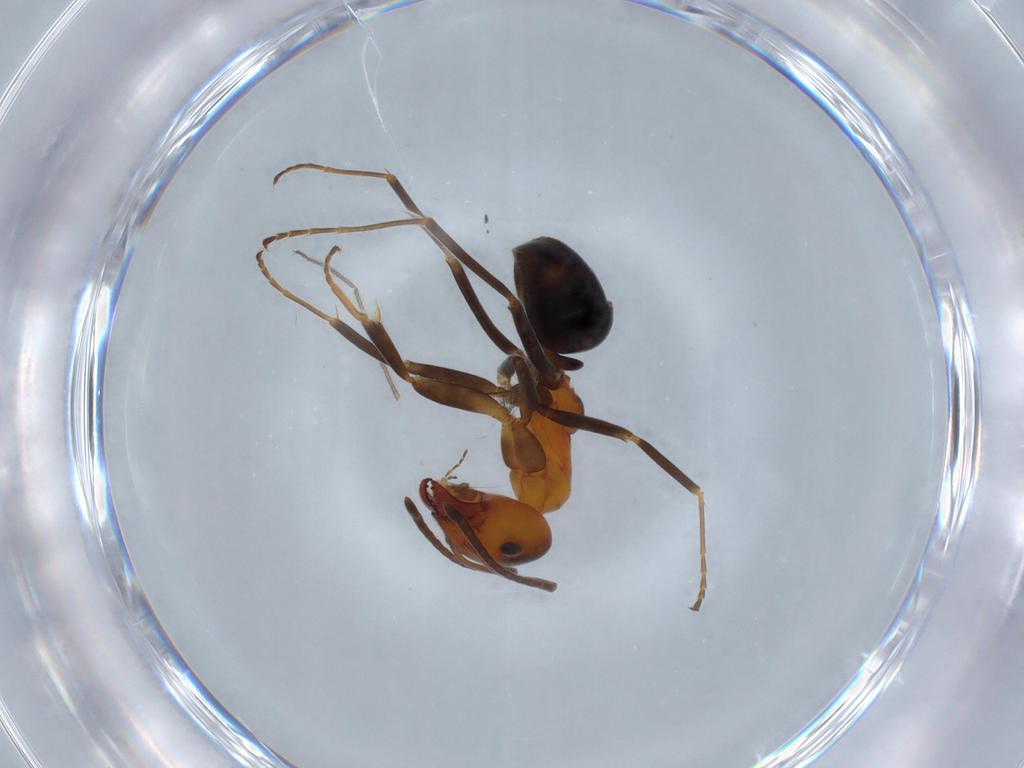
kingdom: Animalia
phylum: Arthropoda
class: Insecta
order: Hymenoptera
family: Formicidae
